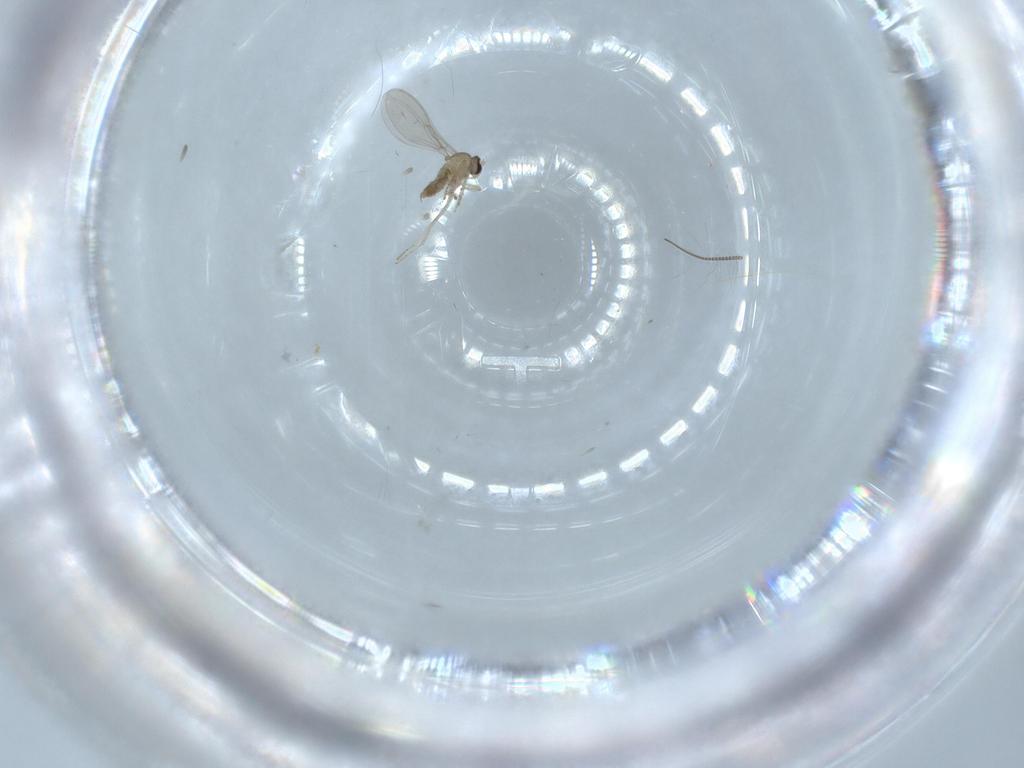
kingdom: Animalia
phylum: Arthropoda
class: Insecta
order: Diptera
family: Cecidomyiidae
